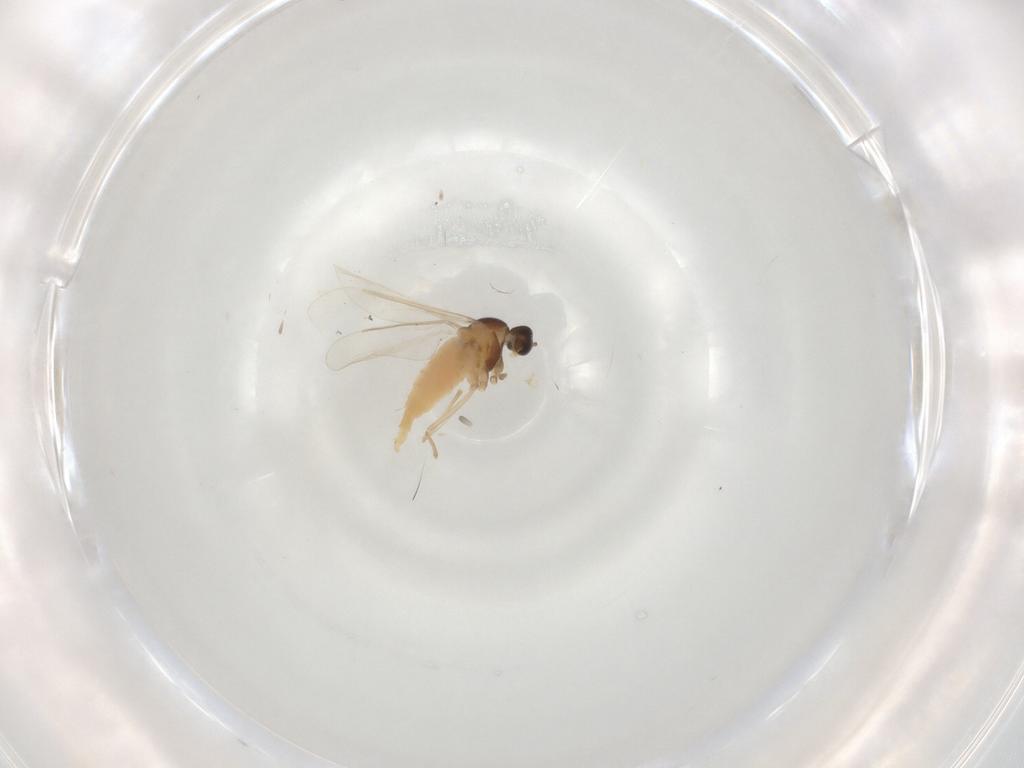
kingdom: Animalia
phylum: Arthropoda
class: Insecta
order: Diptera
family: Cecidomyiidae
